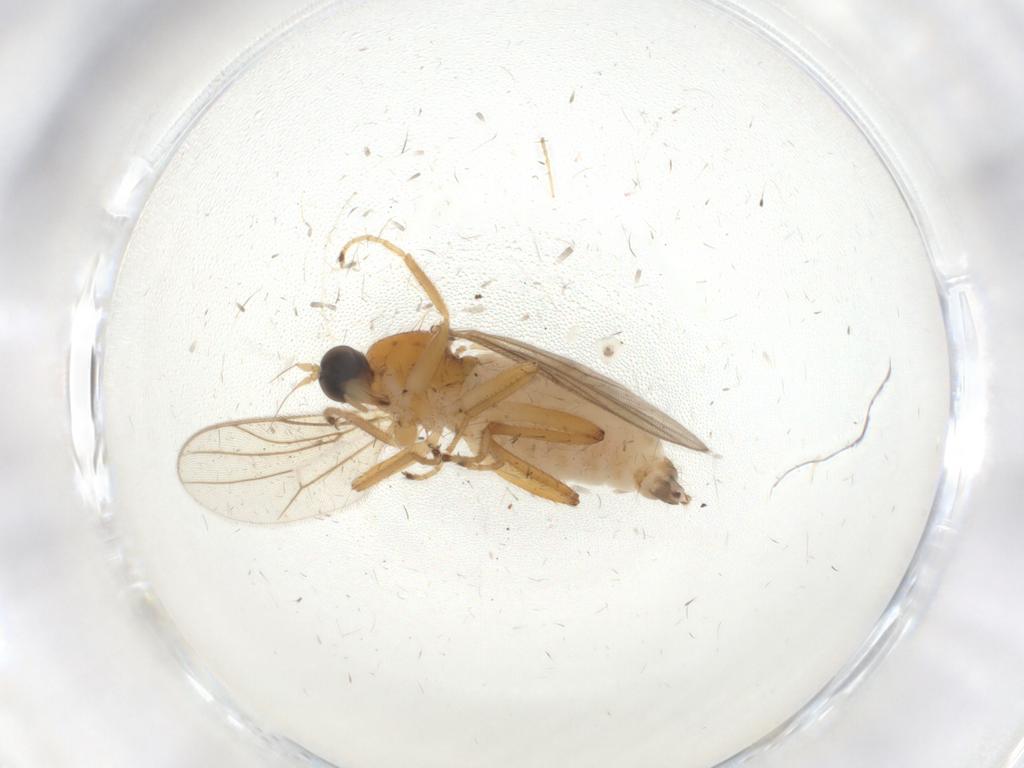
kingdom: Animalia
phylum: Arthropoda
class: Insecta
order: Diptera
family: Hybotidae
